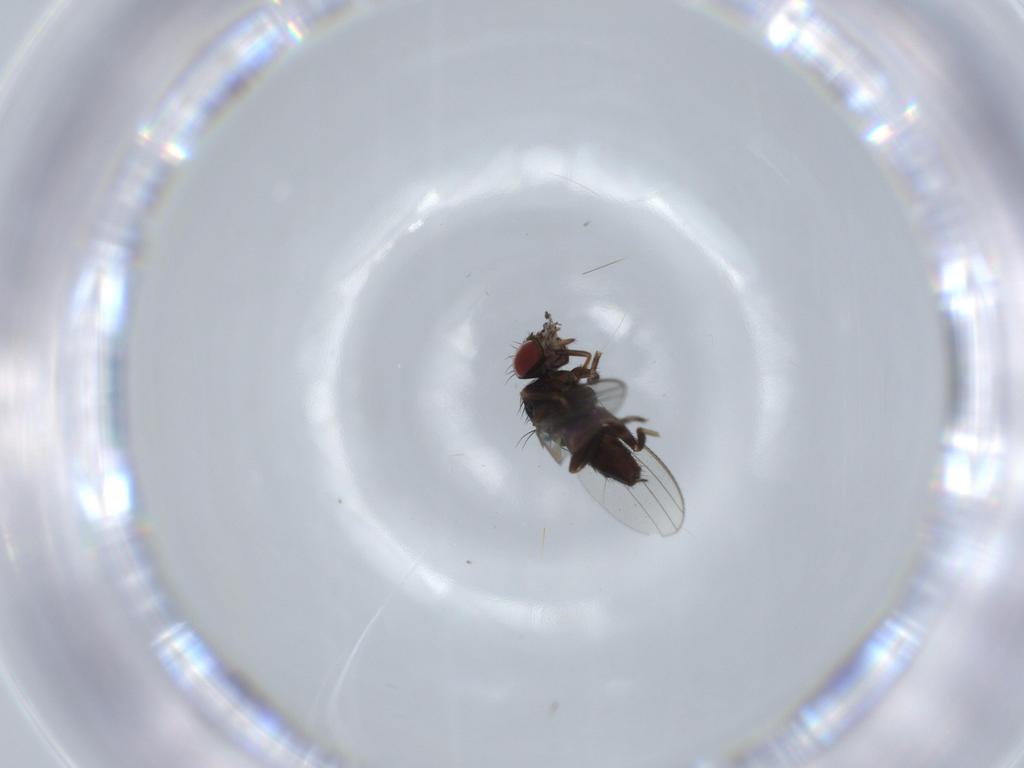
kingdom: Animalia
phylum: Arthropoda
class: Insecta
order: Diptera
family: Milichiidae
